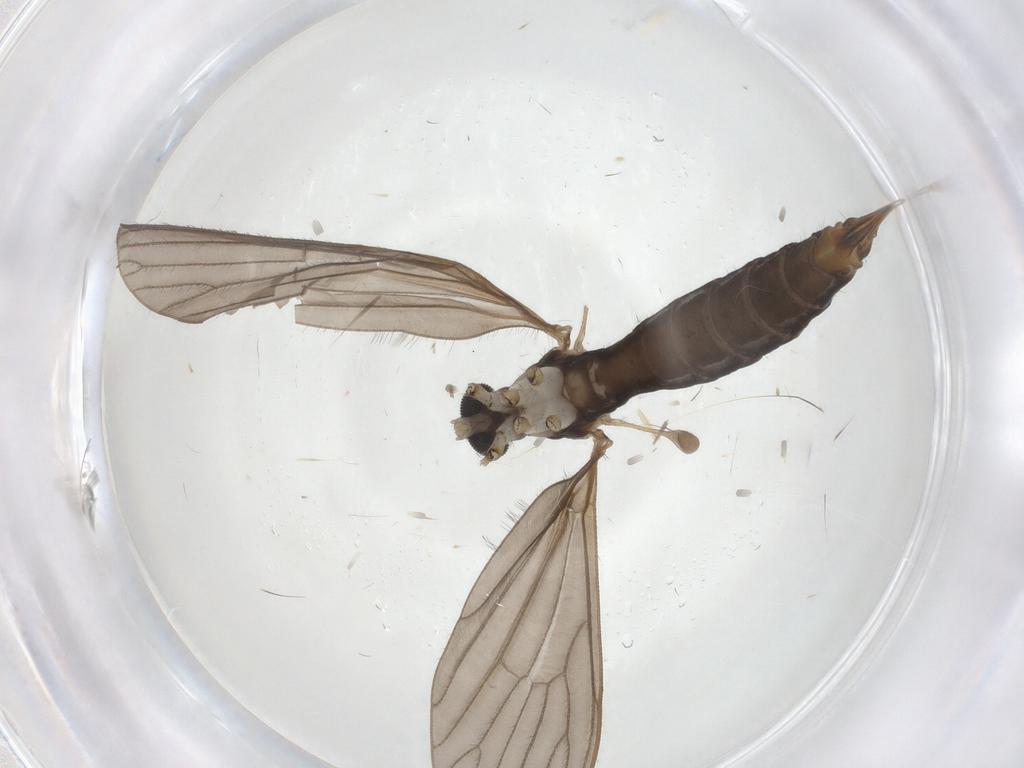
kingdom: Animalia
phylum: Arthropoda
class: Insecta
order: Diptera
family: Limoniidae
